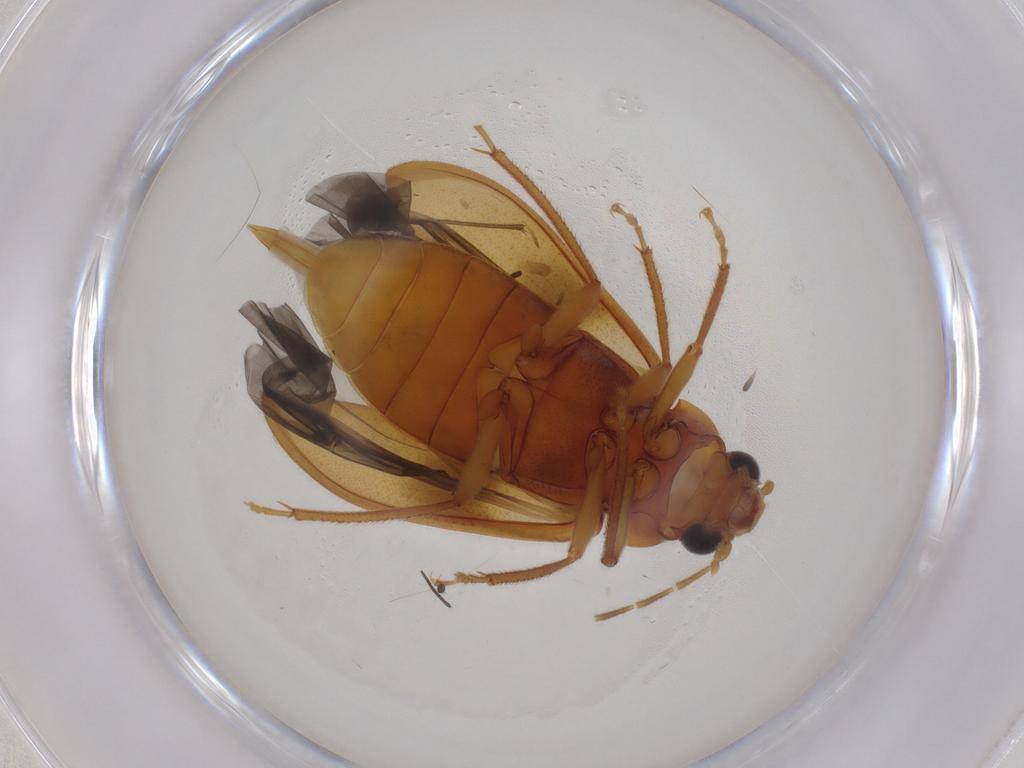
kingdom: Animalia
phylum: Arthropoda
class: Insecta
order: Coleoptera
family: Ptilodactylidae
